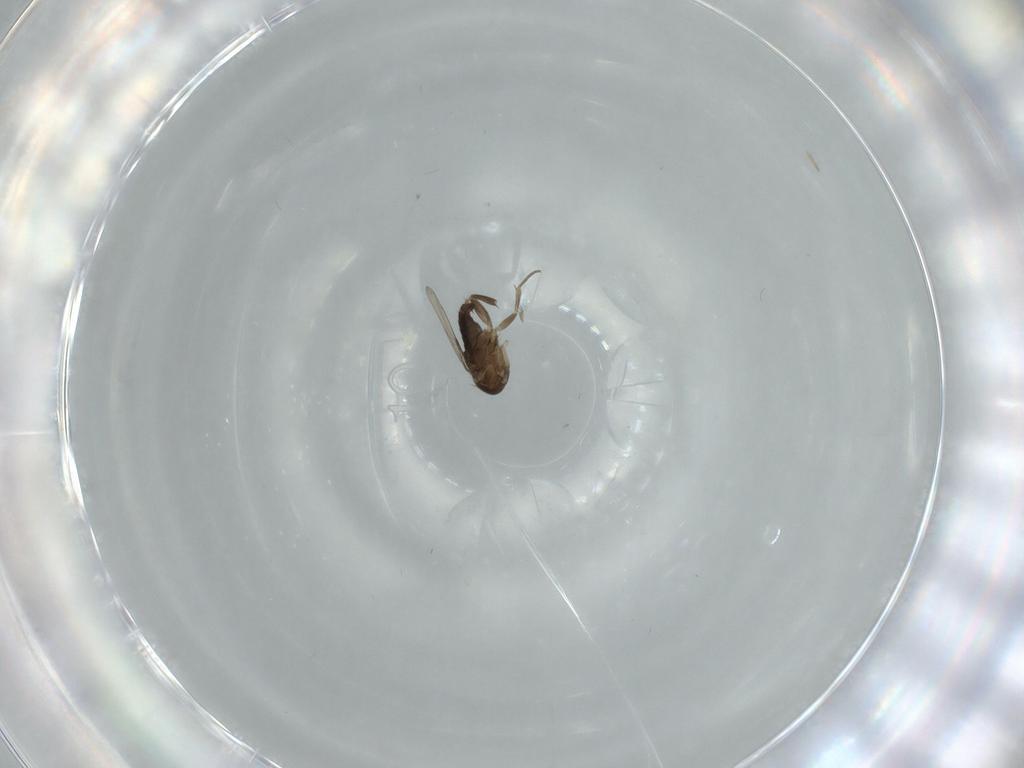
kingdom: Animalia
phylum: Arthropoda
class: Insecta
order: Diptera
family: Phoridae
